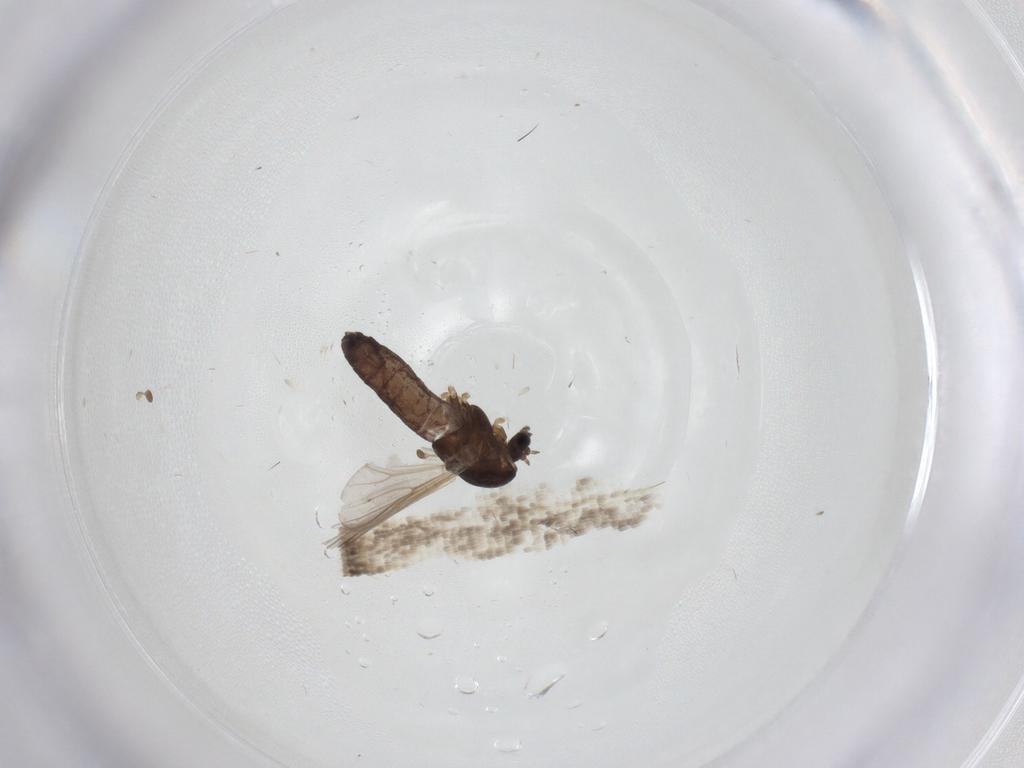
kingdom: Animalia
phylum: Arthropoda
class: Insecta
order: Diptera
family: Chironomidae
